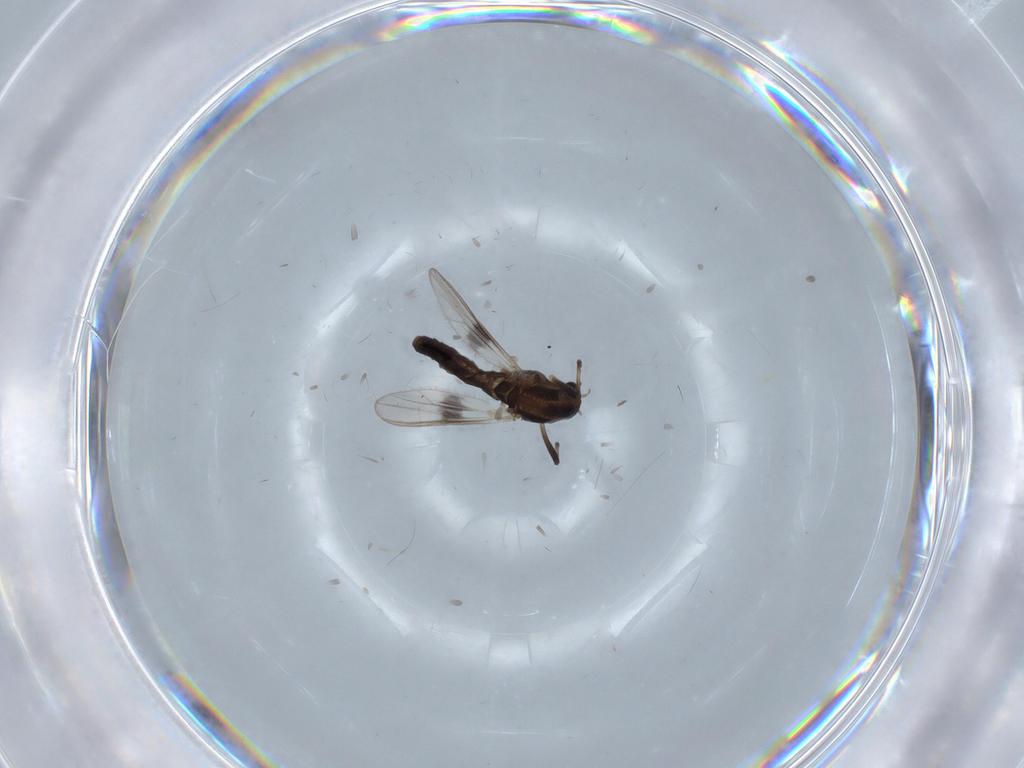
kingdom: Animalia
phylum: Arthropoda
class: Insecta
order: Diptera
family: Chironomidae
